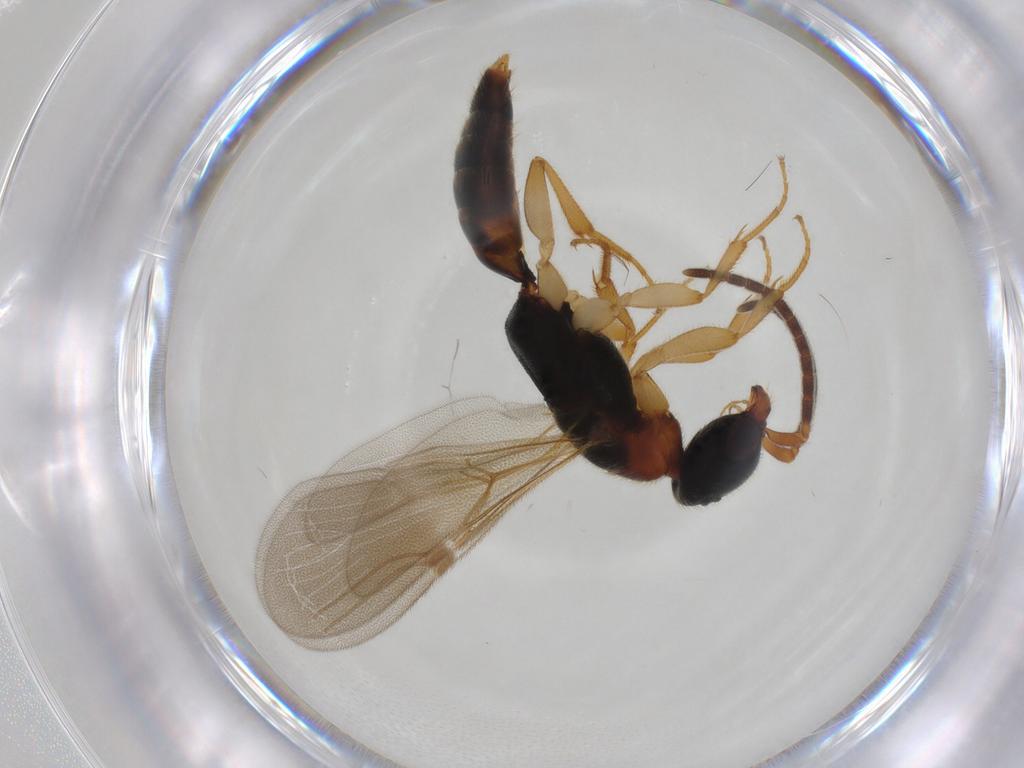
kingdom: Animalia
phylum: Arthropoda
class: Insecta
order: Hymenoptera
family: Bethylidae
